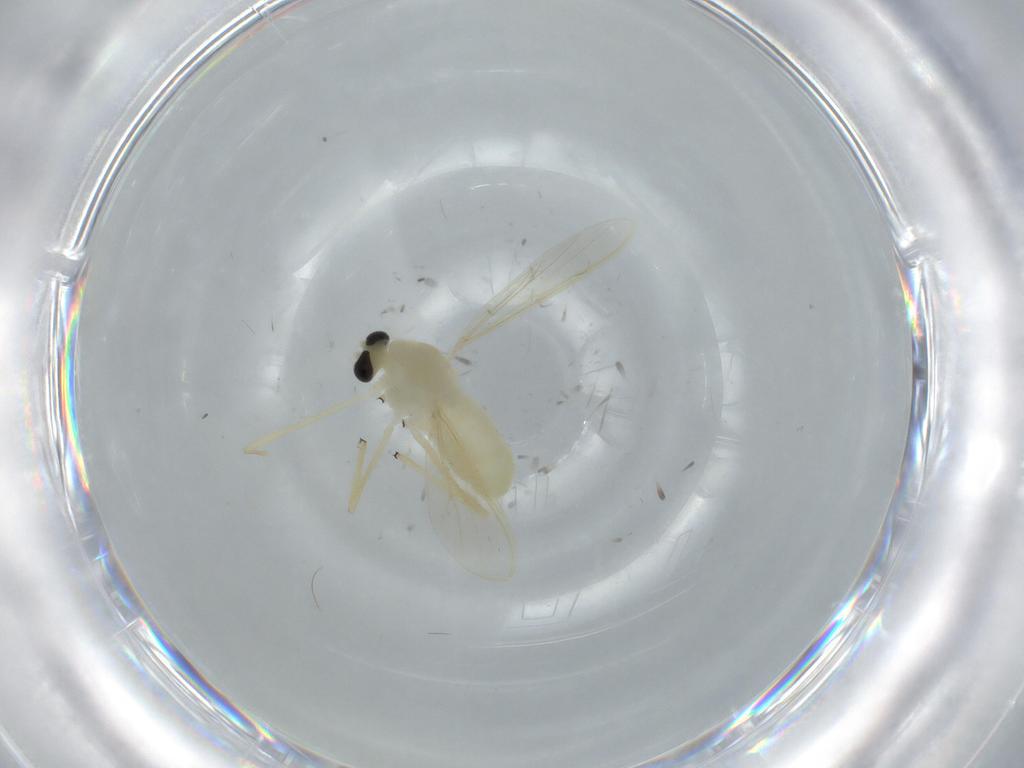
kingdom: Animalia
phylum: Arthropoda
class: Insecta
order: Diptera
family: Chironomidae
